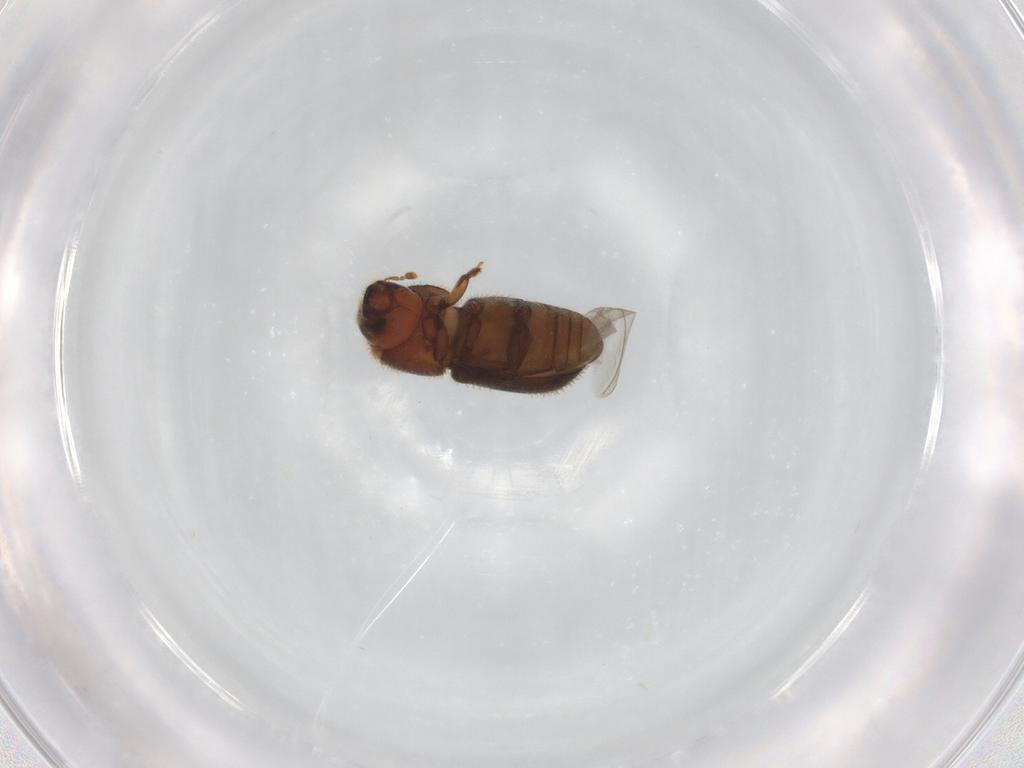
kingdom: Animalia
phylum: Arthropoda
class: Insecta
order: Coleoptera
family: Curculionidae
